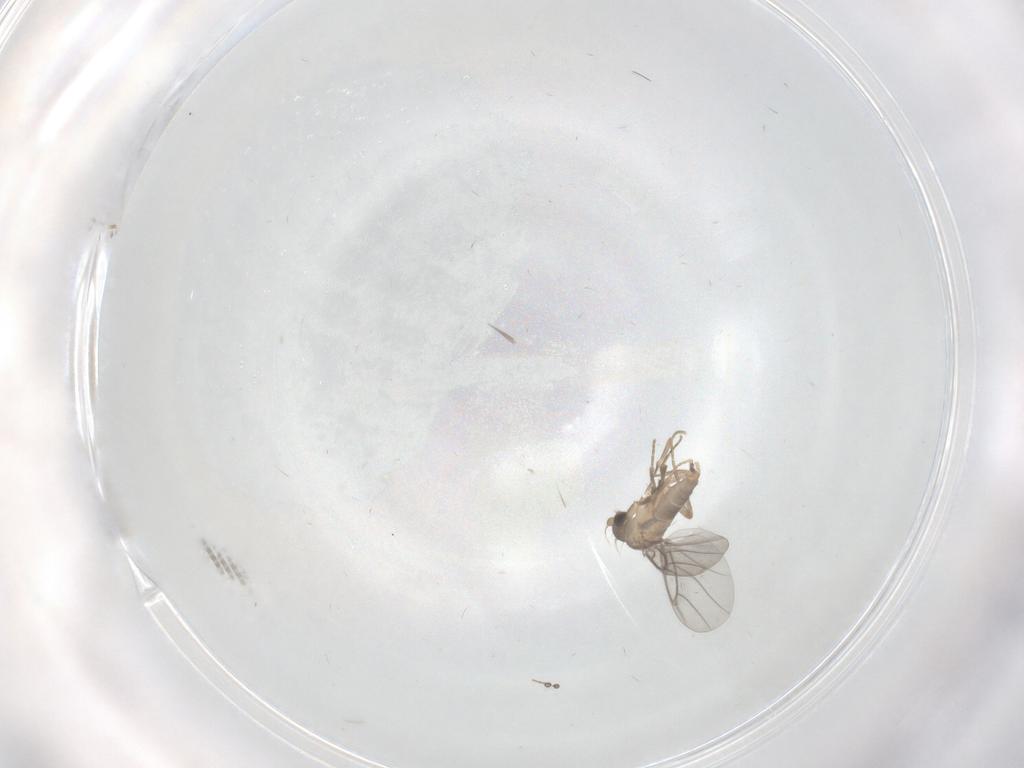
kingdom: Animalia
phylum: Arthropoda
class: Insecta
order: Diptera
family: Psychodidae
